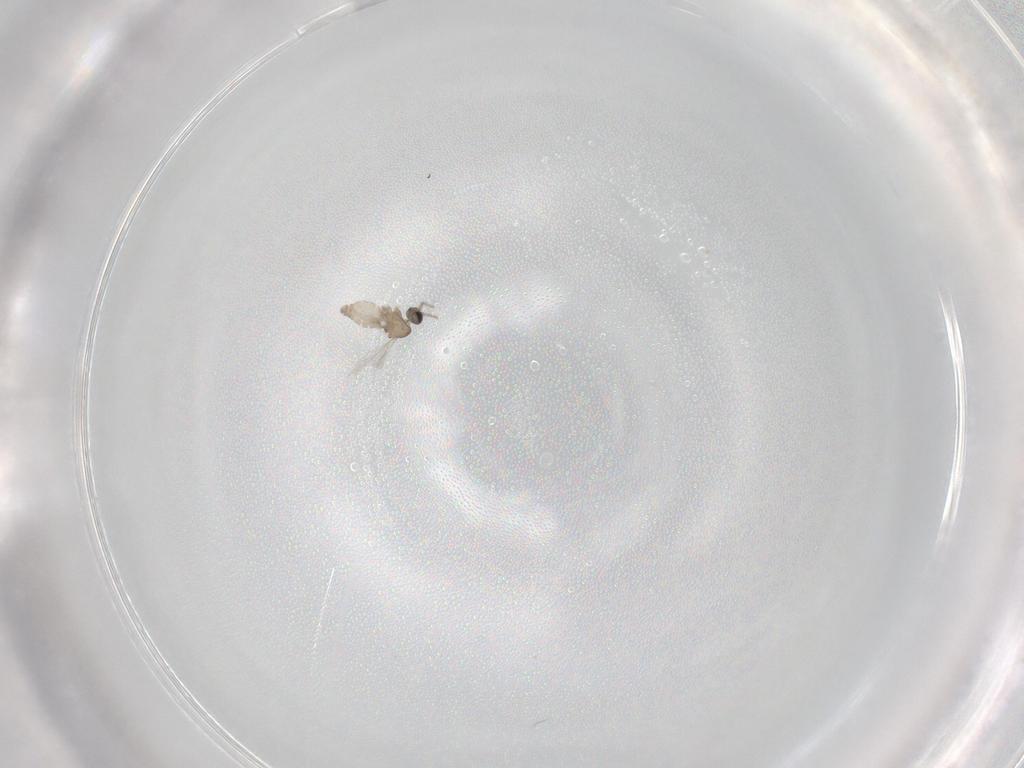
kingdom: Animalia
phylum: Arthropoda
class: Insecta
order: Diptera
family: Cecidomyiidae
